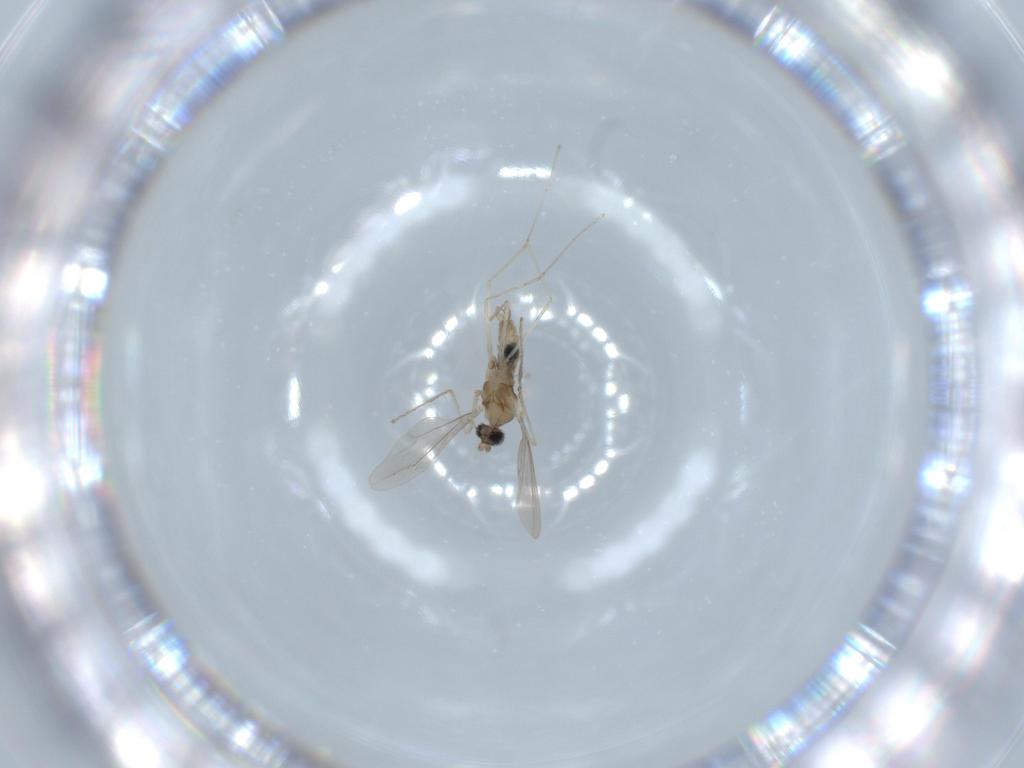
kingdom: Animalia
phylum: Arthropoda
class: Insecta
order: Diptera
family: Cecidomyiidae
